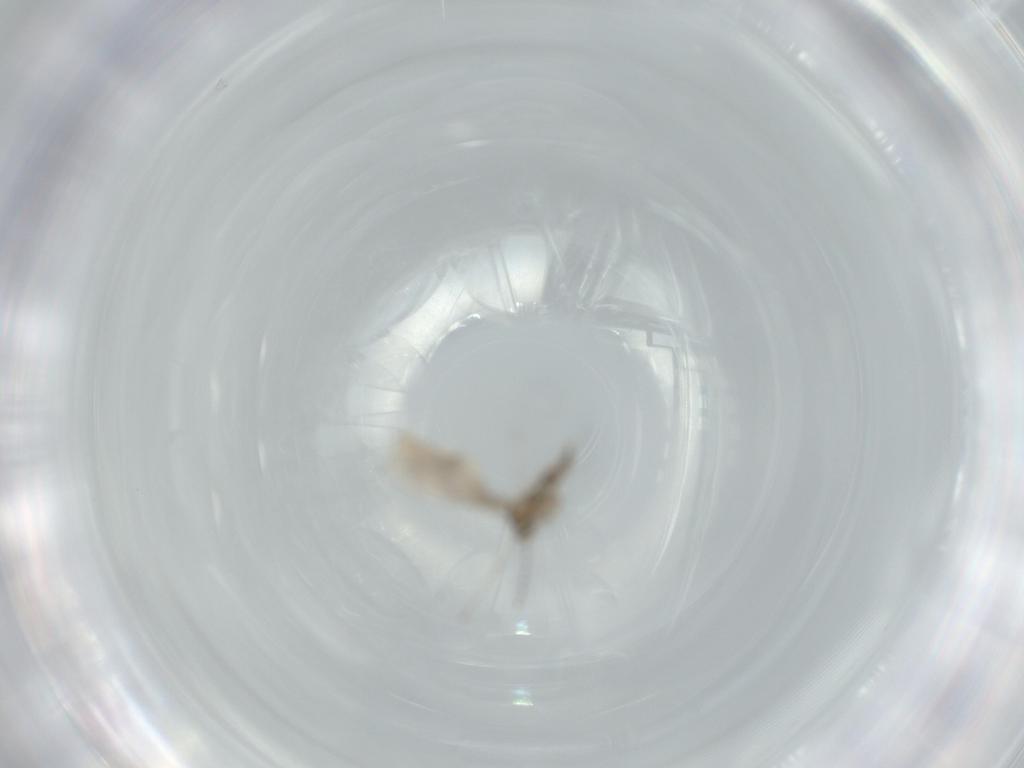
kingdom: Animalia
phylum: Arthropoda
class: Insecta
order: Diptera
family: Cecidomyiidae
